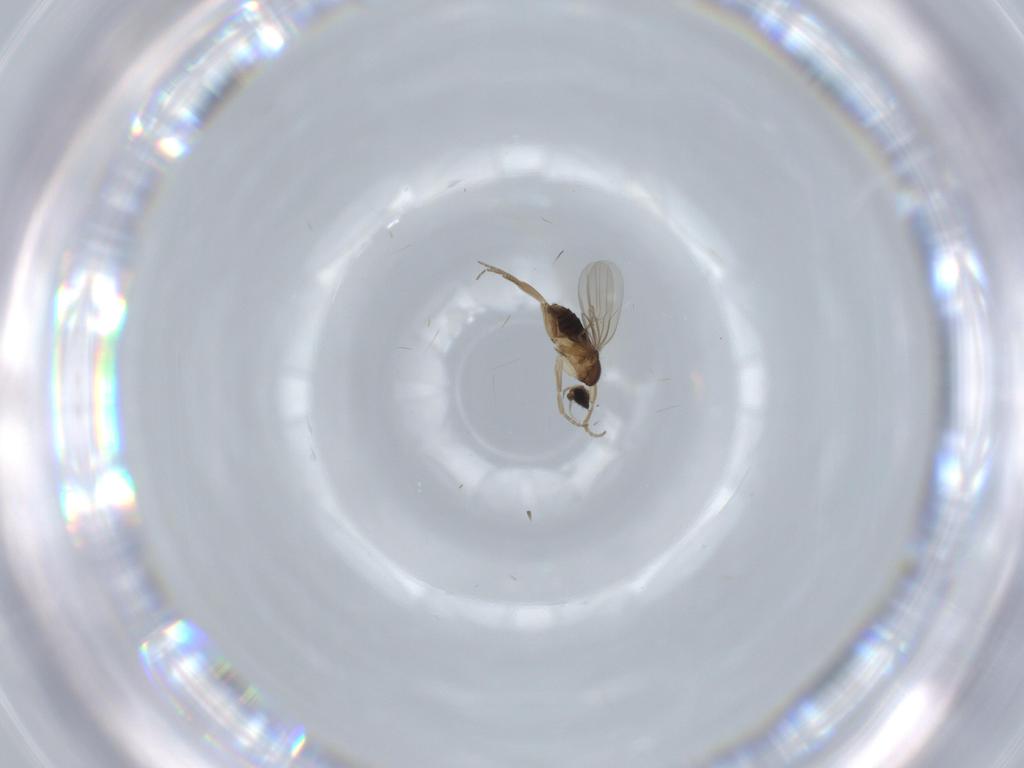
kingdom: Animalia
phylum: Arthropoda
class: Insecta
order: Diptera
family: Phoridae
